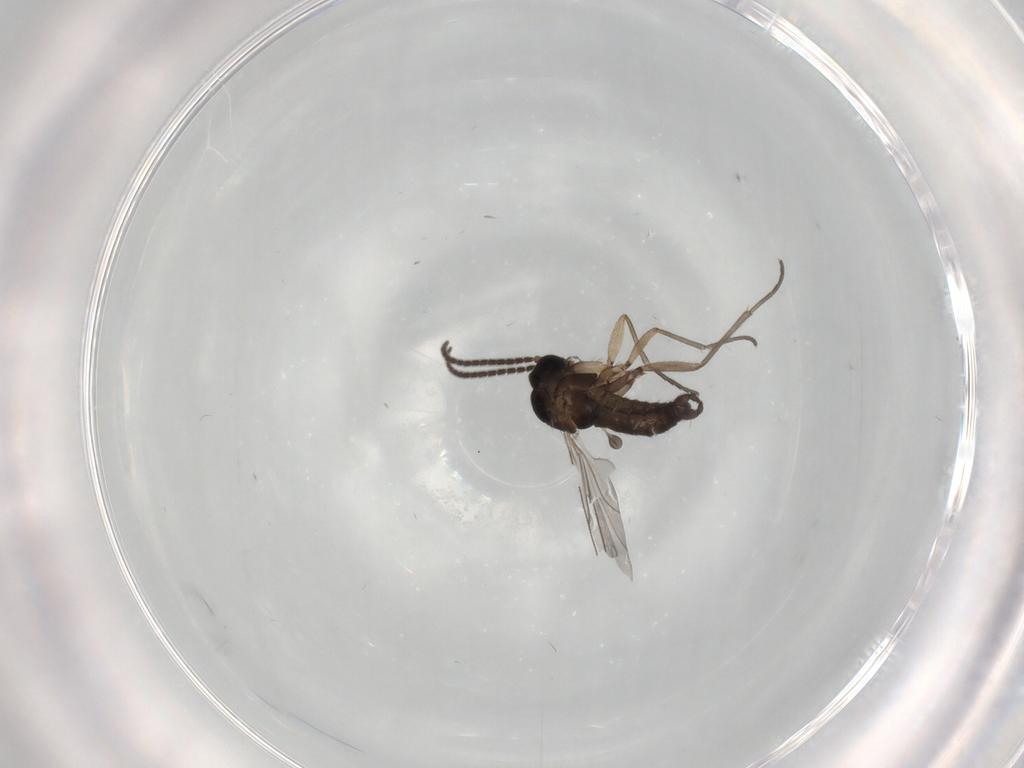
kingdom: Animalia
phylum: Arthropoda
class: Insecta
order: Diptera
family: Sciaridae
